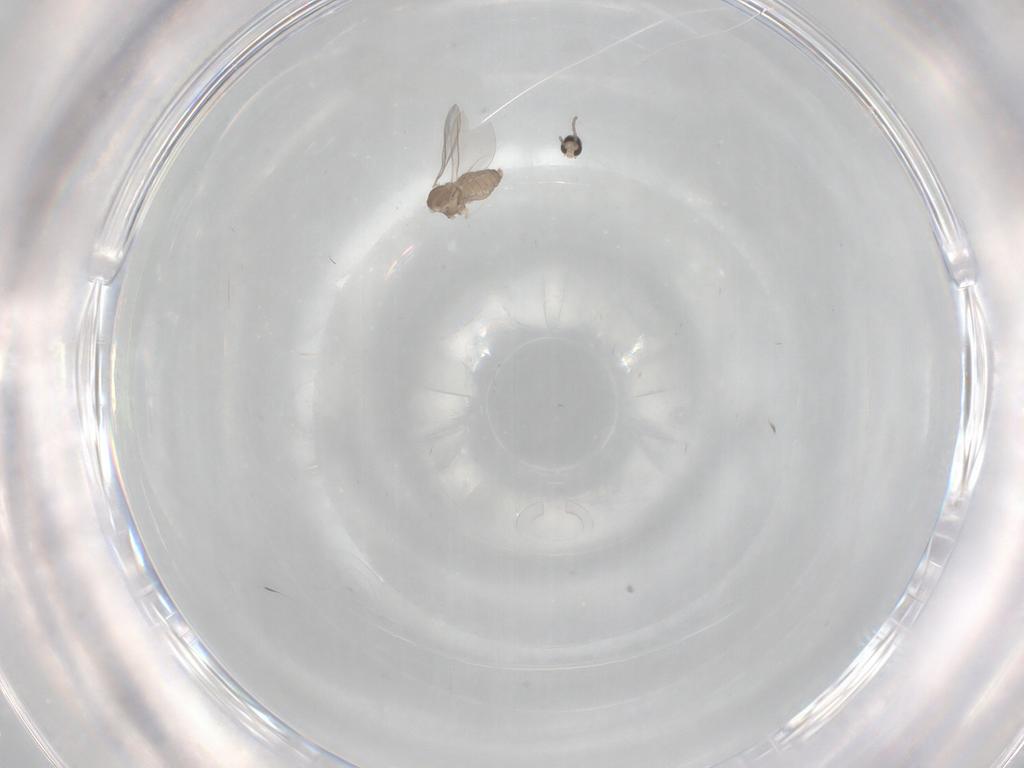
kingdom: Animalia
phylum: Arthropoda
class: Insecta
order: Diptera
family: Cecidomyiidae
